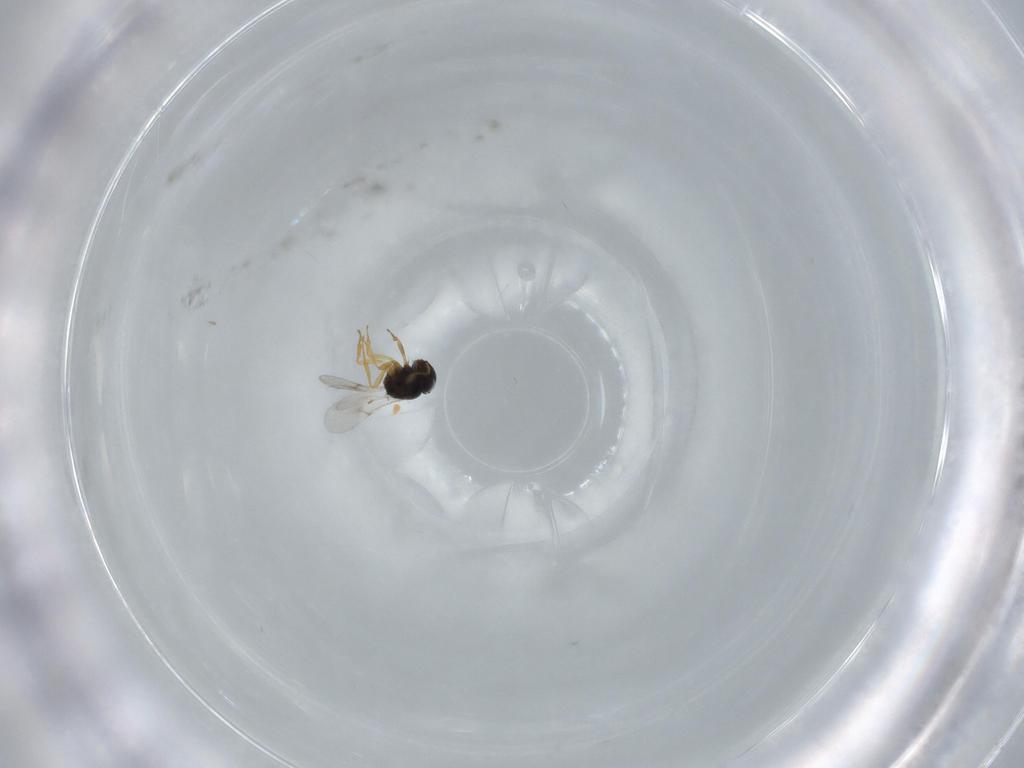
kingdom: Animalia
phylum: Arthropoda
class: Insecta
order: Hymenoptera
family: Scelionidae
